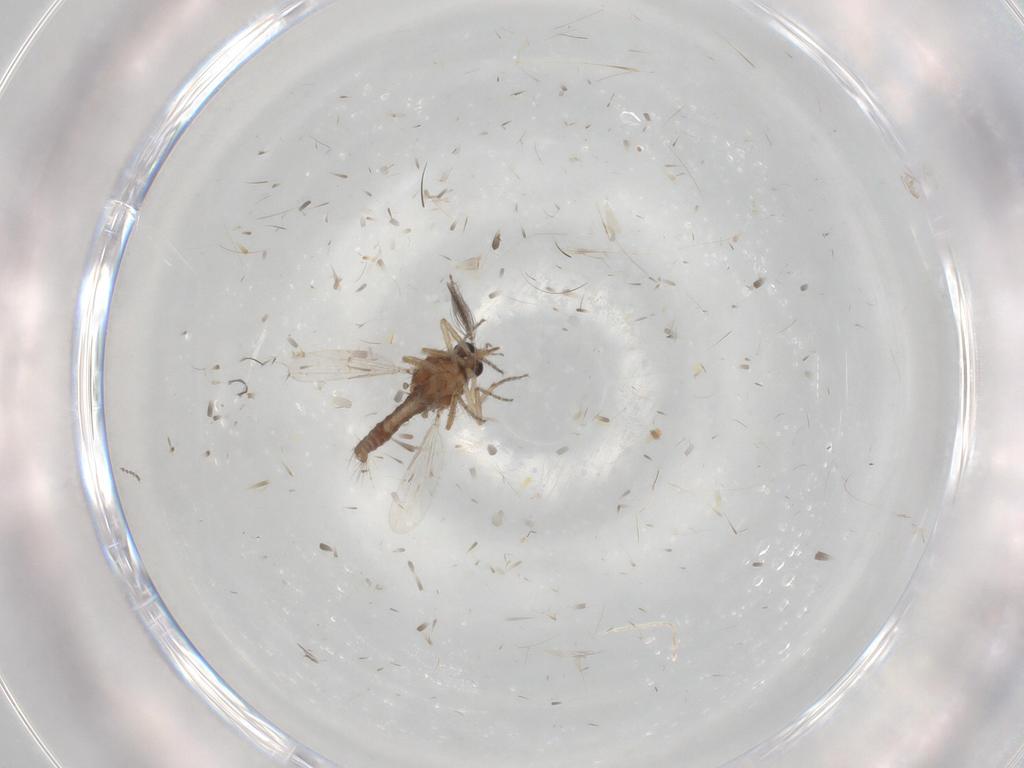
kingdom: Animalia
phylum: Arthropoda
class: Insecta
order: Diptera
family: Ceratopogonidae
